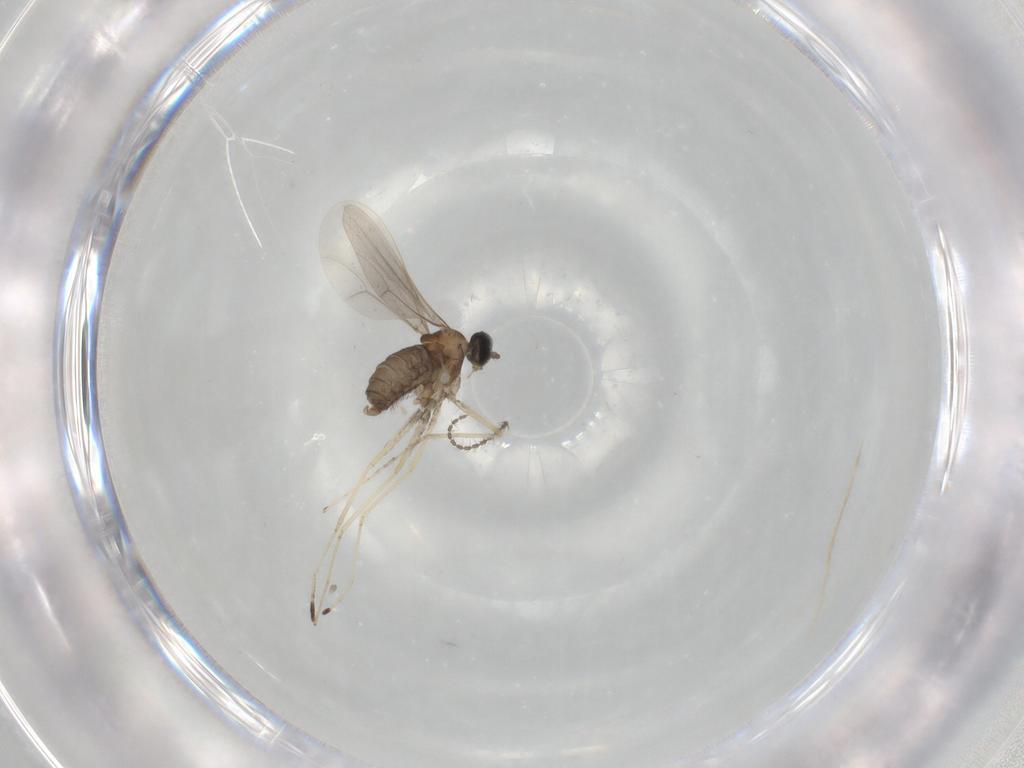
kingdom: Animalia
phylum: Arthropoda
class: Insecta
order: Diptera
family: Cecidomyiidae
